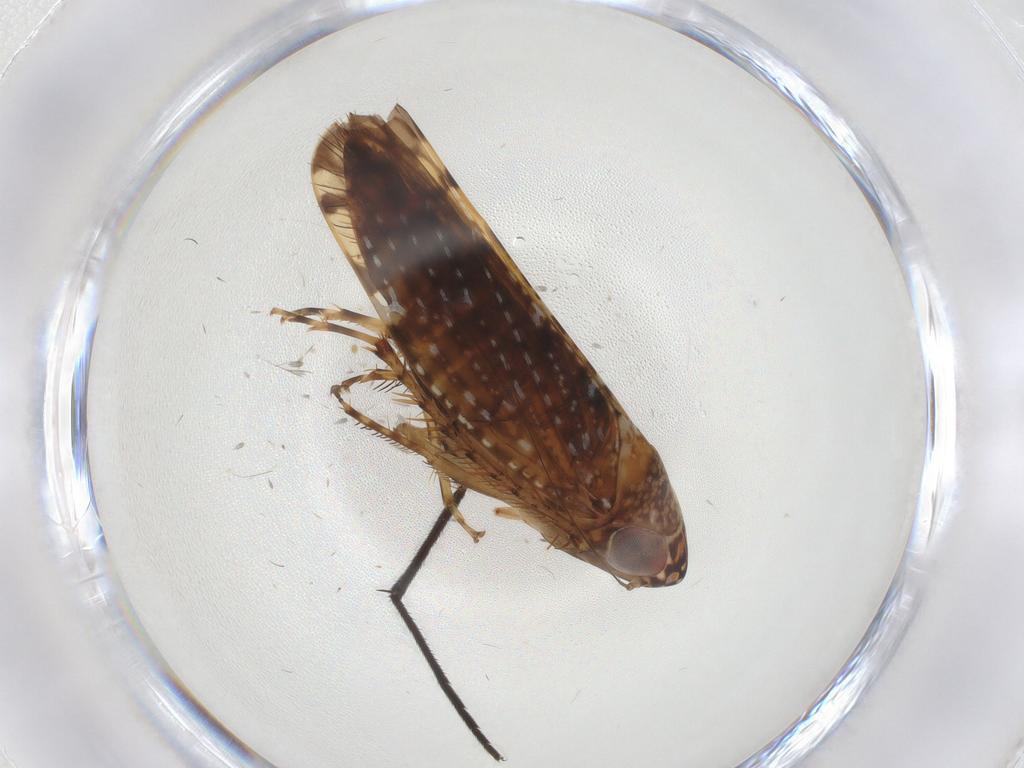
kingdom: Animalia
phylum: Arthropoda
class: Insecta
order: Hemiptera
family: Cicadellidae
